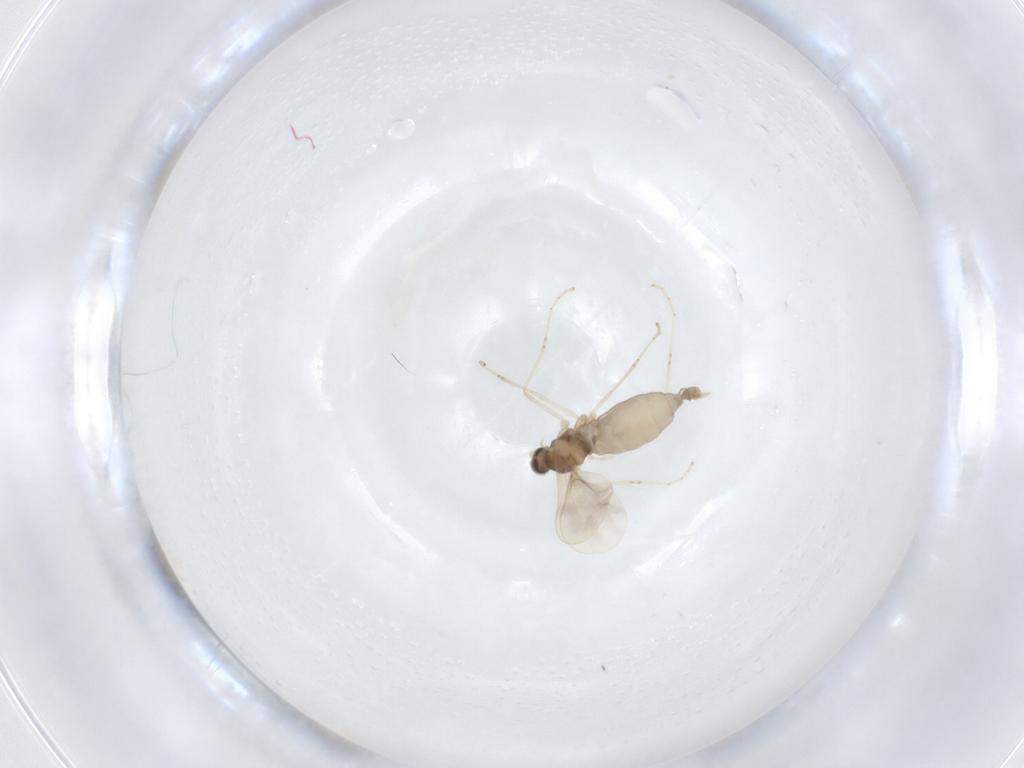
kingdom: Animalia
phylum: Arthropoda
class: Insecta
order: Diptera
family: Cecidomyiidae
